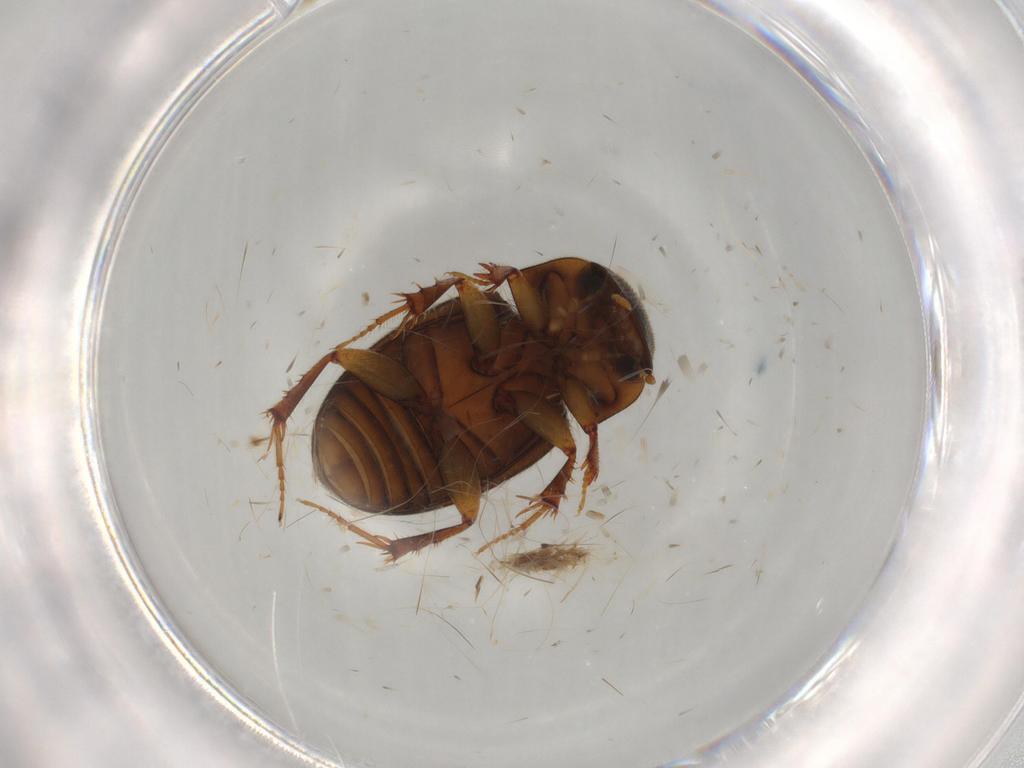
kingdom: Animalia
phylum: Arthropoda
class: Insecta
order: Coleoptera
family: Scarabaeidae
